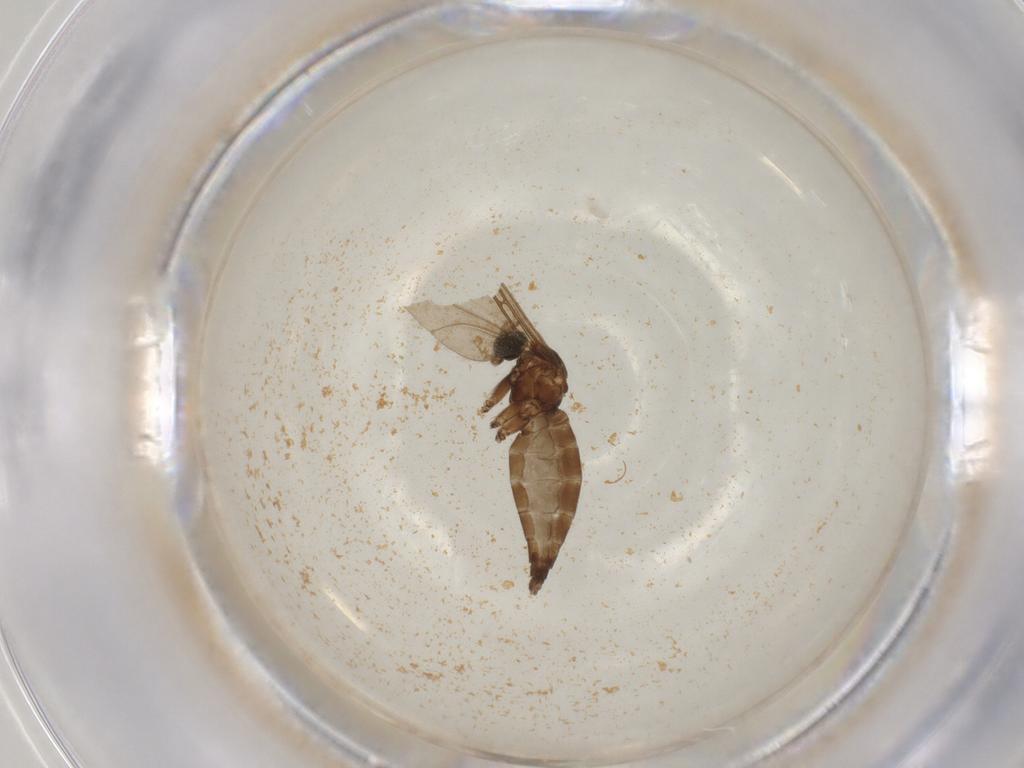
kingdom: Animalia
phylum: Arthropoda
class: Insecta
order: Diptera
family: Sciaridae
